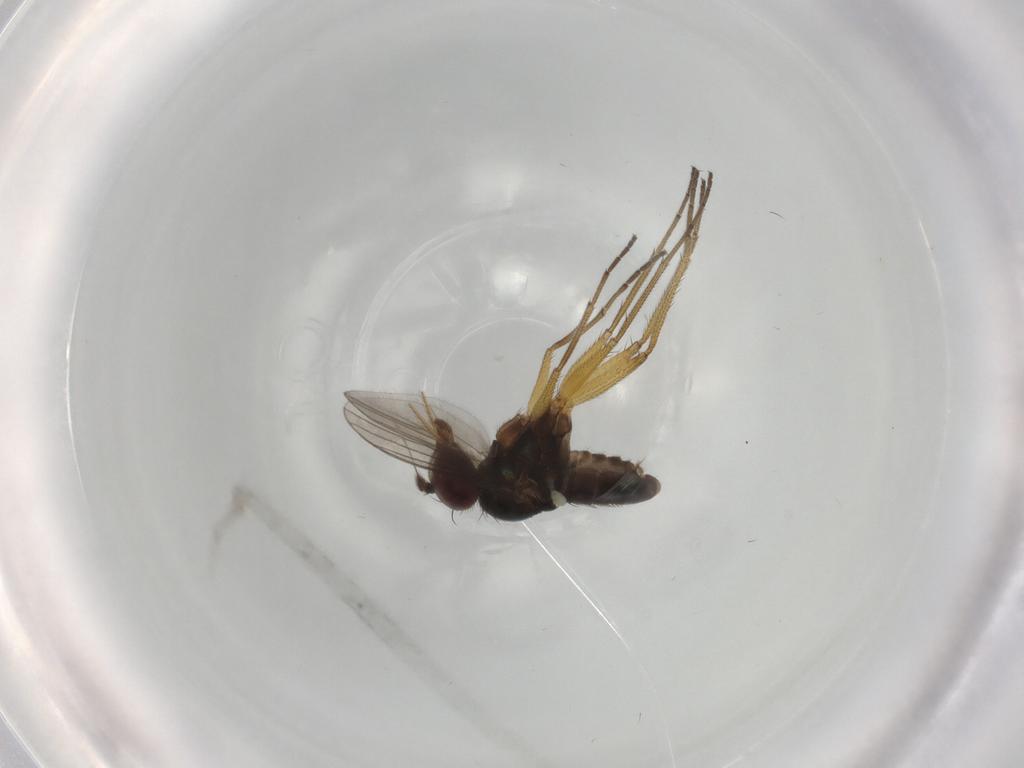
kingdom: Animalia
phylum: Arthropoda
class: Insecta
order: Diptera
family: Dolichopodidae
